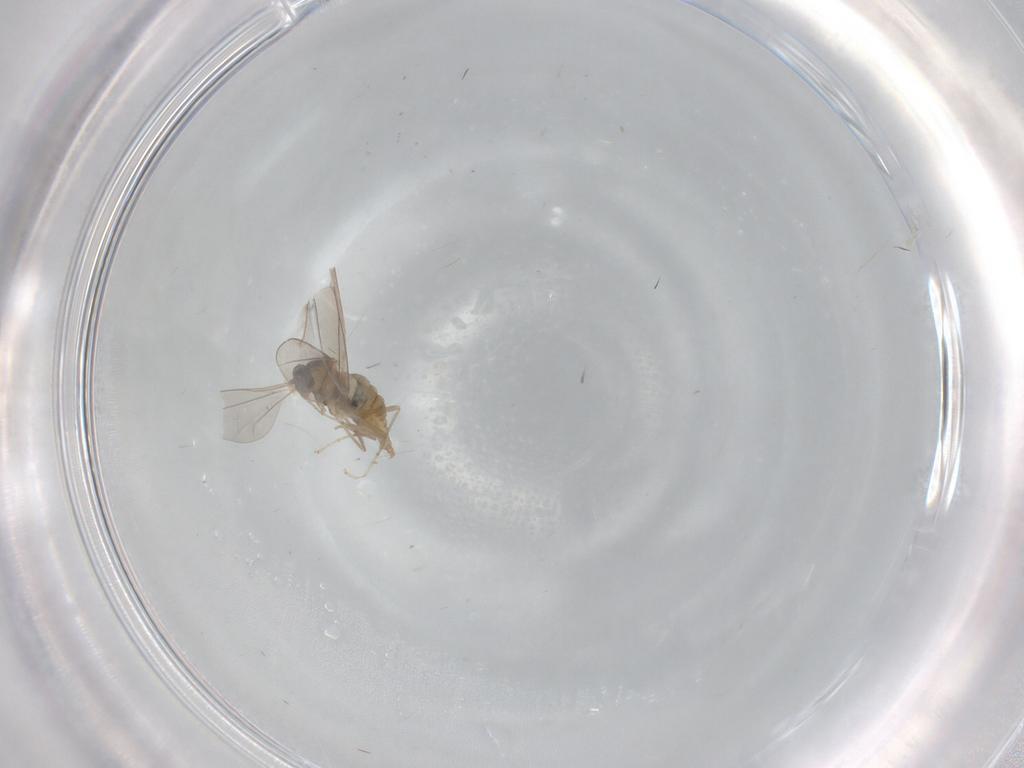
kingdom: Animalia
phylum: Arthropoda
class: Insecta
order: Diptera
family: Cecidomyiidae
